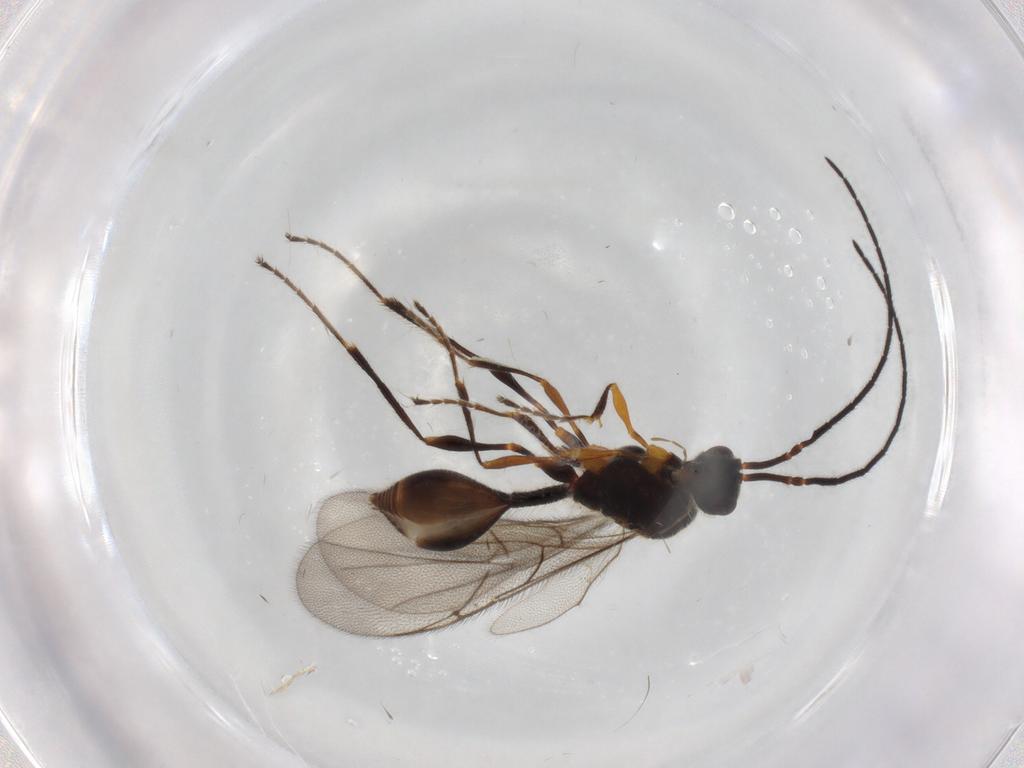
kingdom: Animalia
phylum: Arthropoda
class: Insecta
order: Hymenoptera
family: Diapriidae
